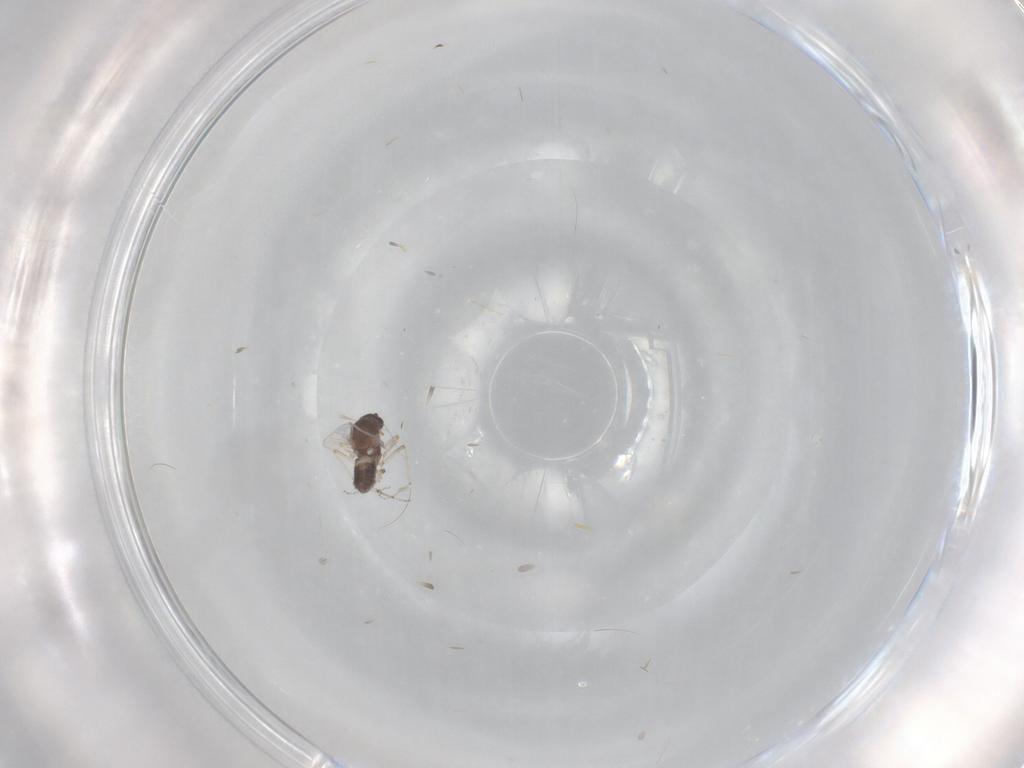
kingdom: Animalia
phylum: Arthropoda
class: Insecta
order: Diptera
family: Ceratopogonidae
